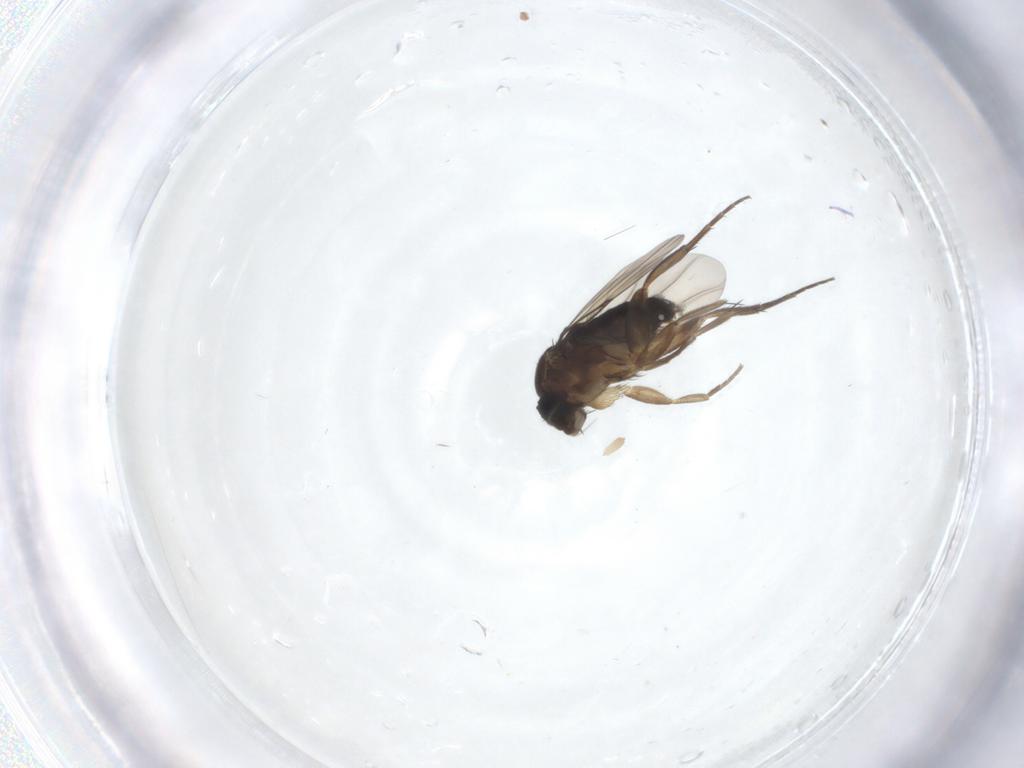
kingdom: Animalia
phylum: Arthropoda
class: Insecta
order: Diptera
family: Phoridae
